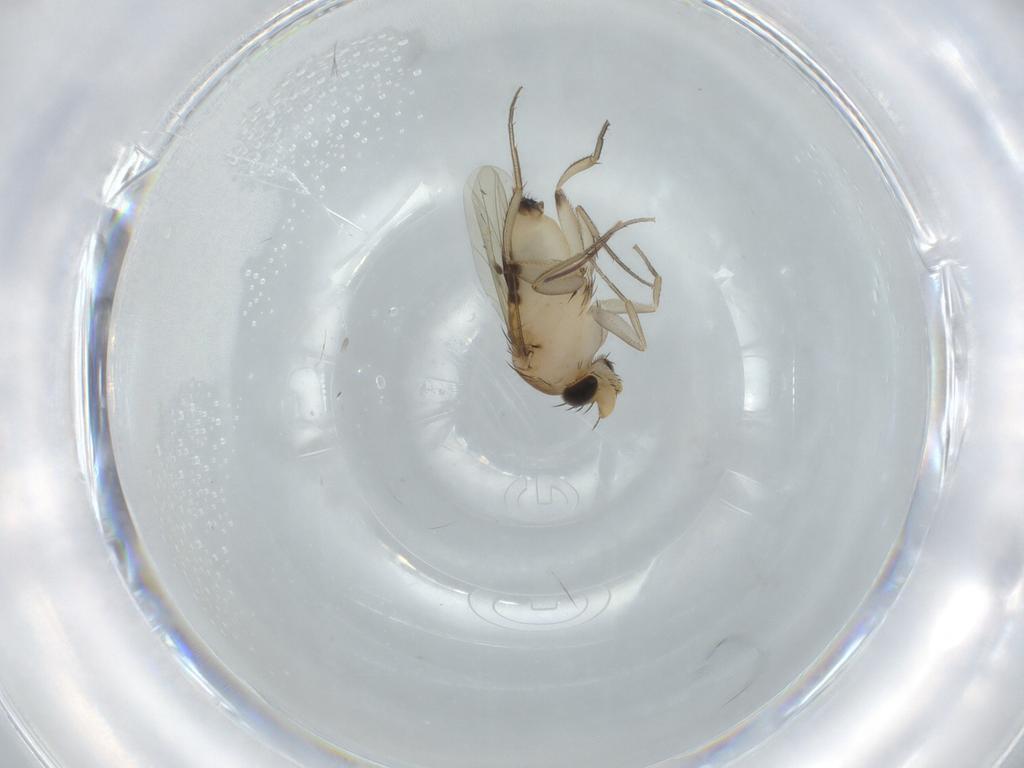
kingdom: Animalia
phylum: Arthropoda
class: Insecta
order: Diptera
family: Phoridae
